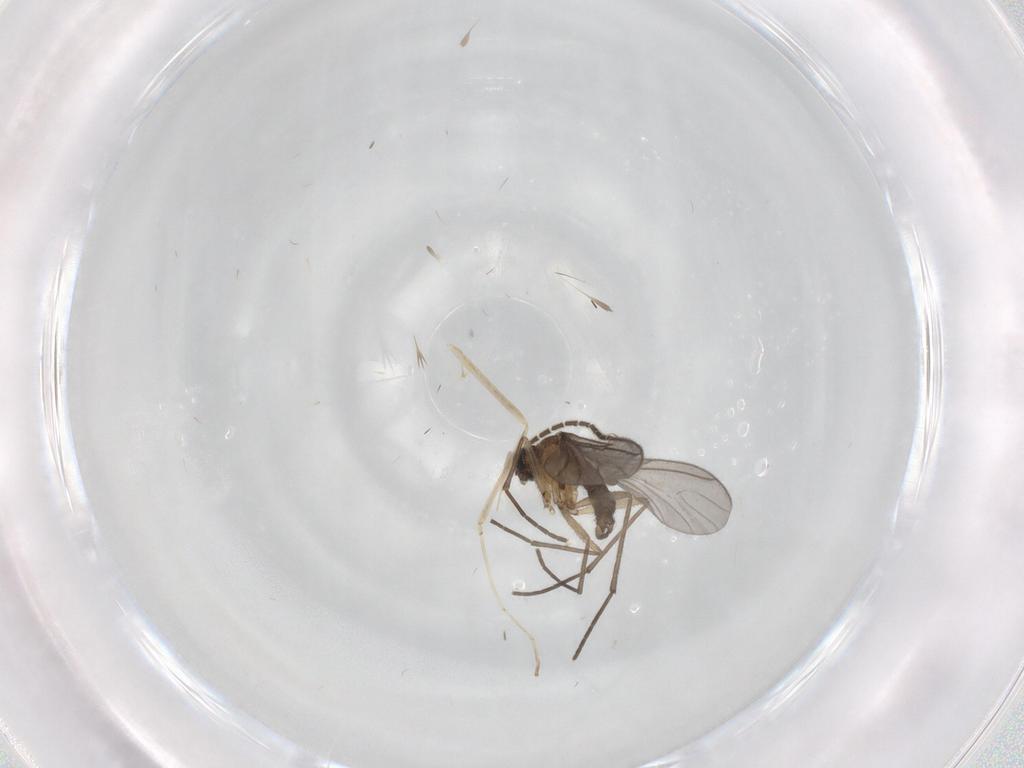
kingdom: Animalia
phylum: Arthropoda
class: Insecta
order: Diptera
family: Sciaridae
